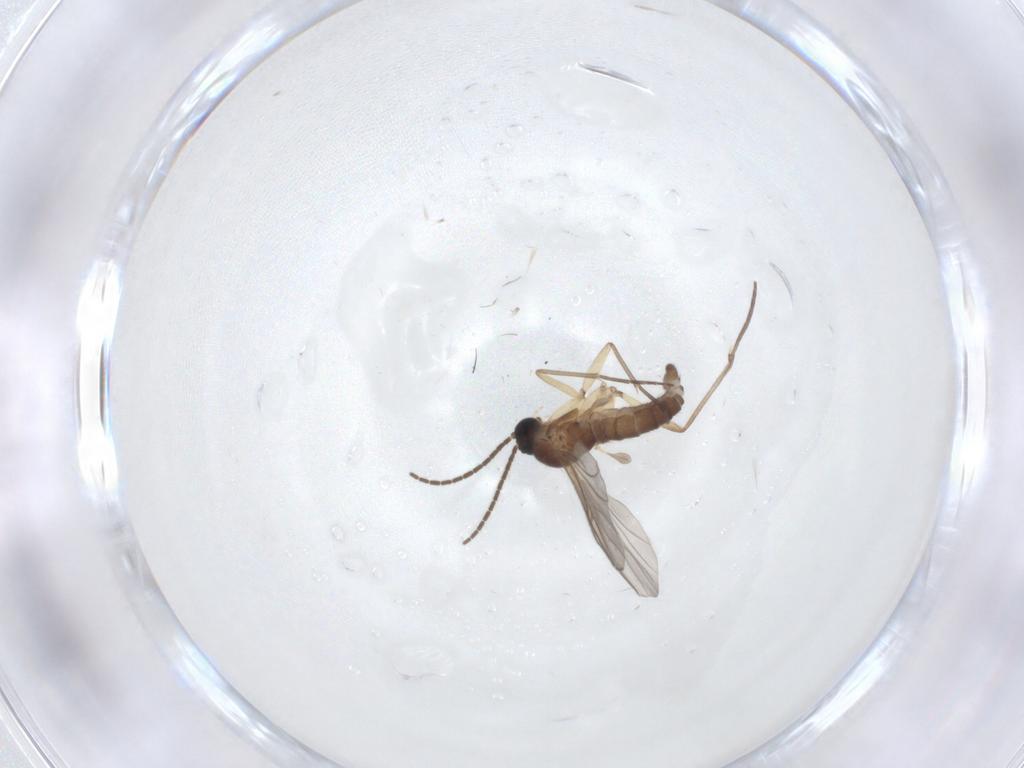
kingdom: Animalia
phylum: Arthropoda
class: Insecta
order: Diptera
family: Sciaridae
